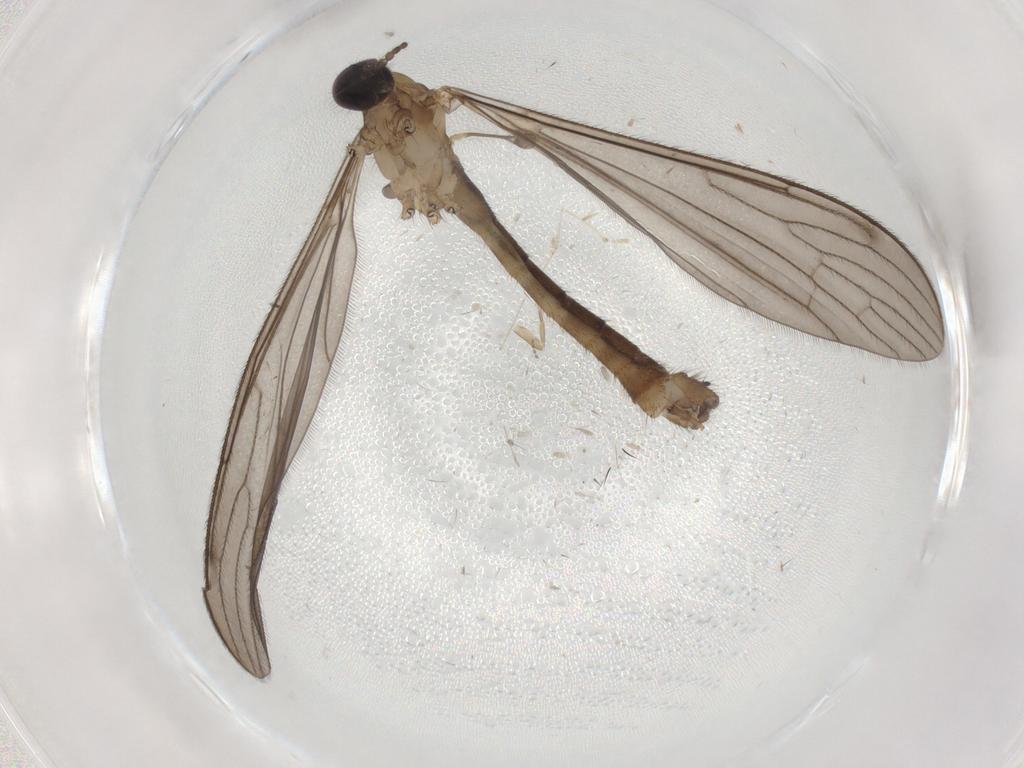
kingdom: Animalia
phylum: Arthropoda
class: Insecta
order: Diptera
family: Sciaridae
